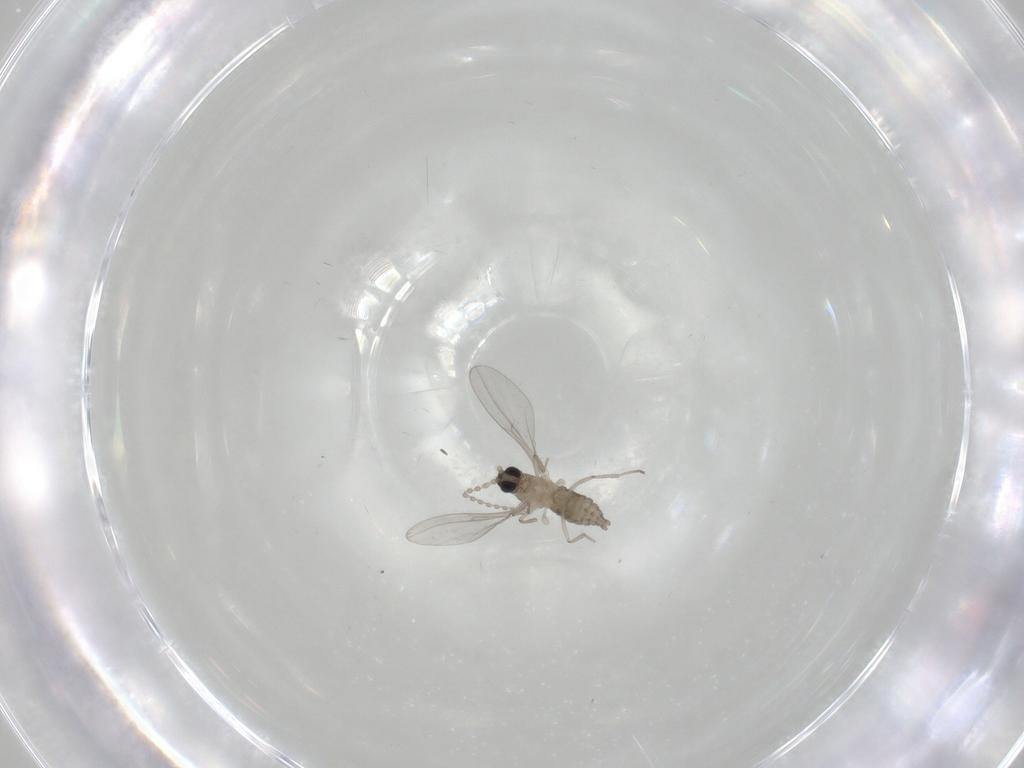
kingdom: Animalia
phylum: Arthropoda
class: Insecta
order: Diptera
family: Cecidomyiidae
